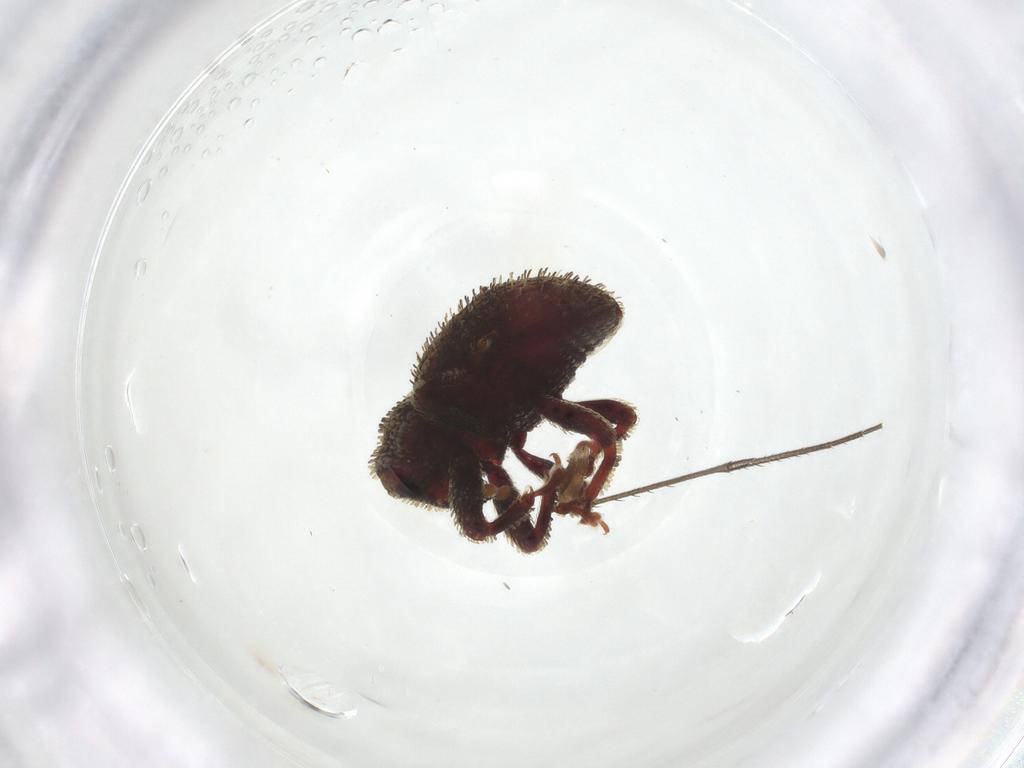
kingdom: Animalia
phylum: Arthropoda
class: Insecta
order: Coleoptera
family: Curculionidae
